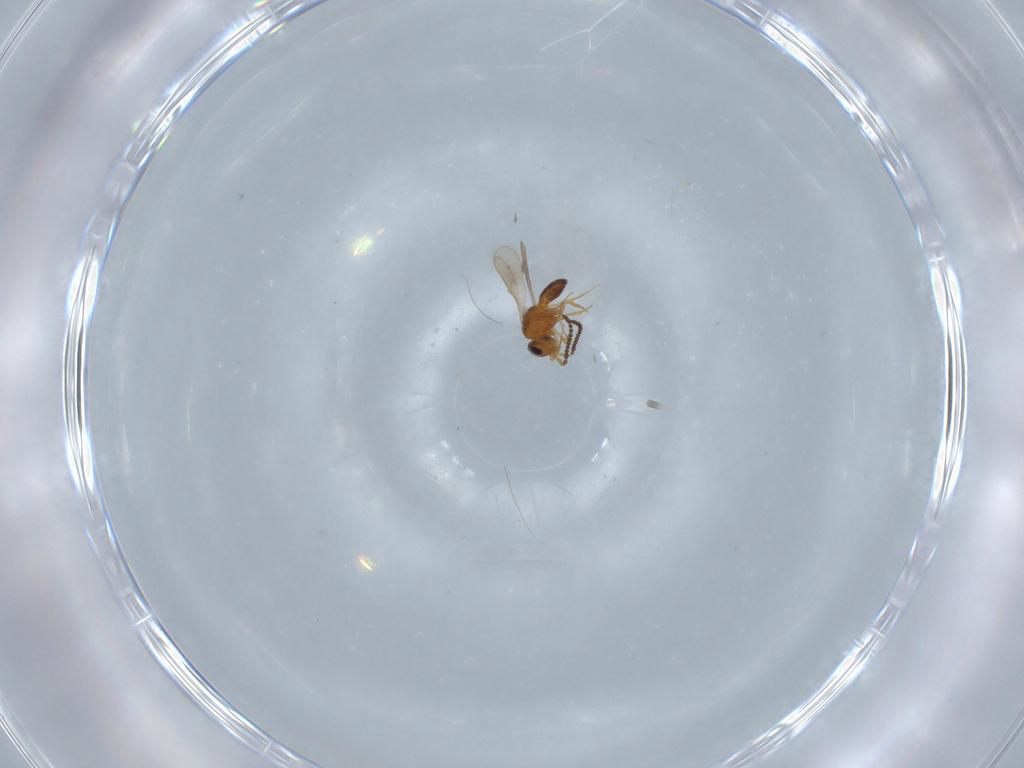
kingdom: Animalia
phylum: Arthropoda
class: Insecta
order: Hymenoptera
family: Scelionidae
